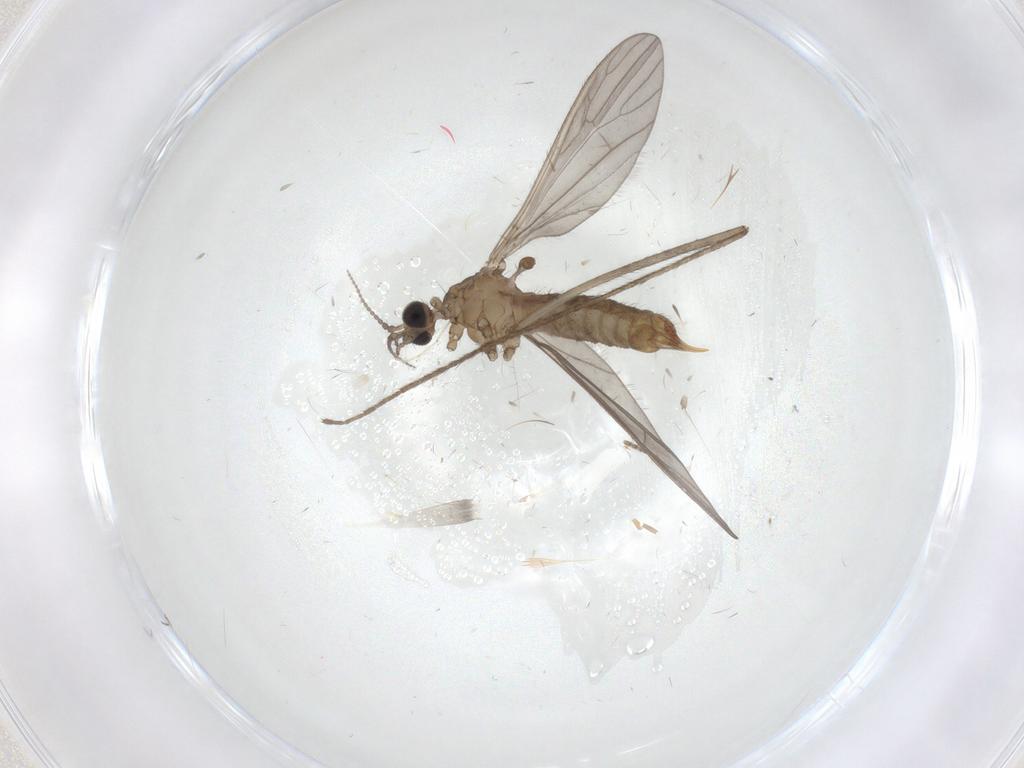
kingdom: Animalia
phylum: Arthropoda
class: Insecta
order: Diptera
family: Limoniidae
